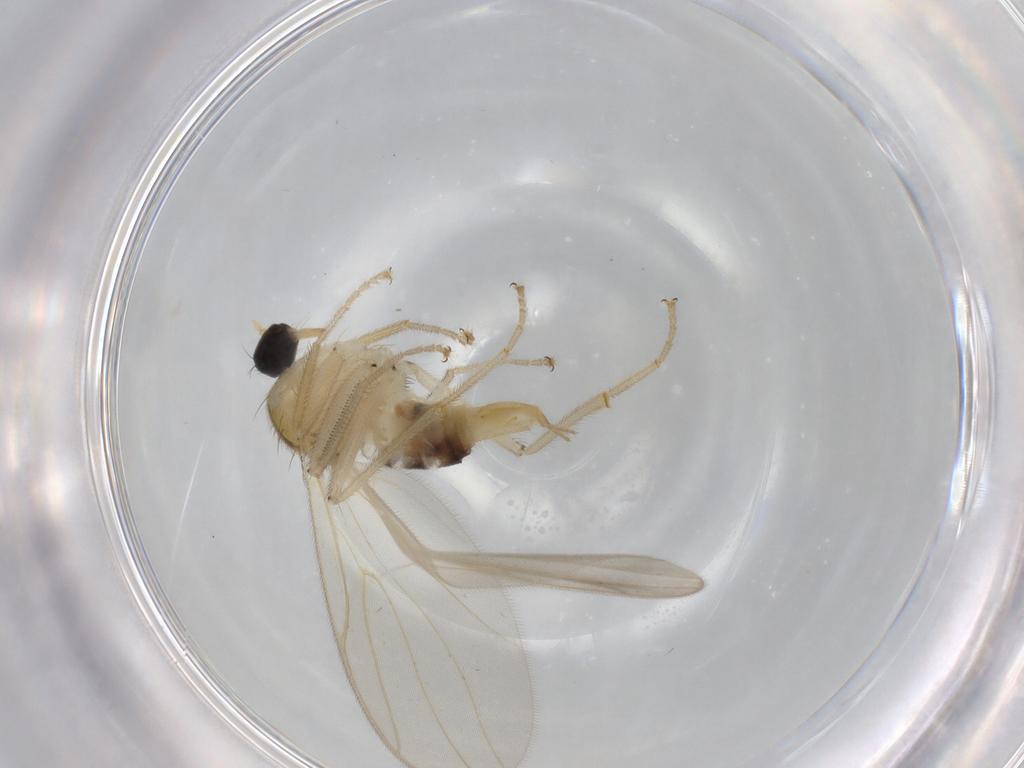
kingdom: Animalia
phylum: Arthropoda
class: Insecta
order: Diptera
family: Hybotidae
